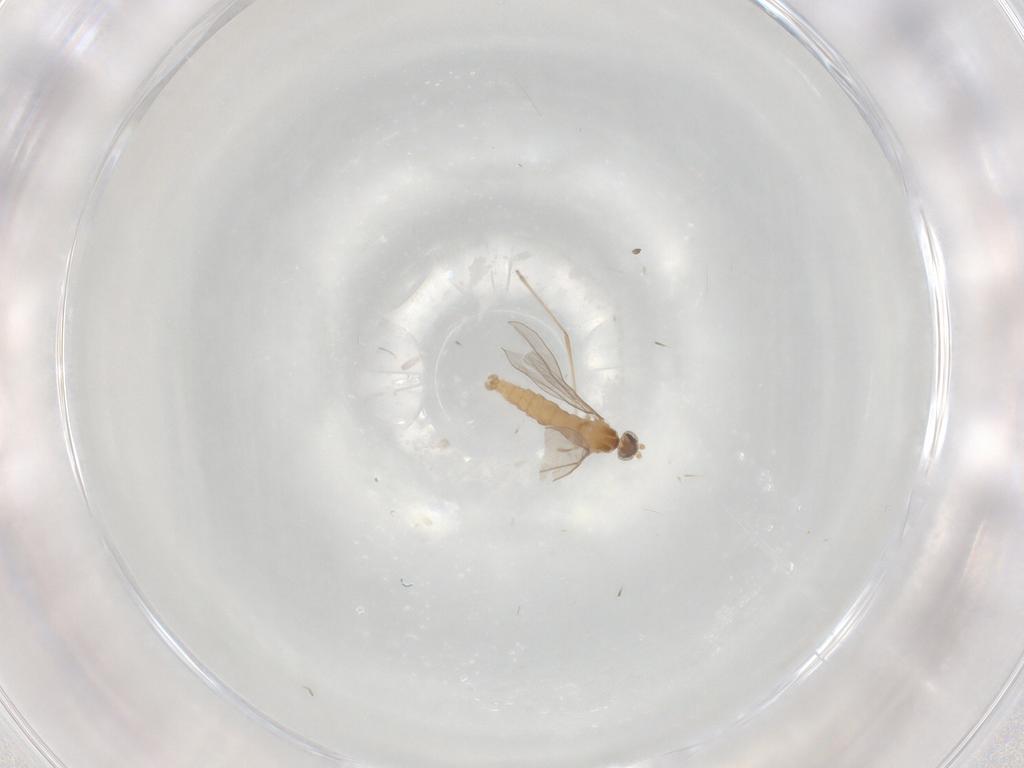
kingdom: Animalia
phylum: Arthropoda
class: Insecta
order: Diptera
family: Cecidomyiidae
